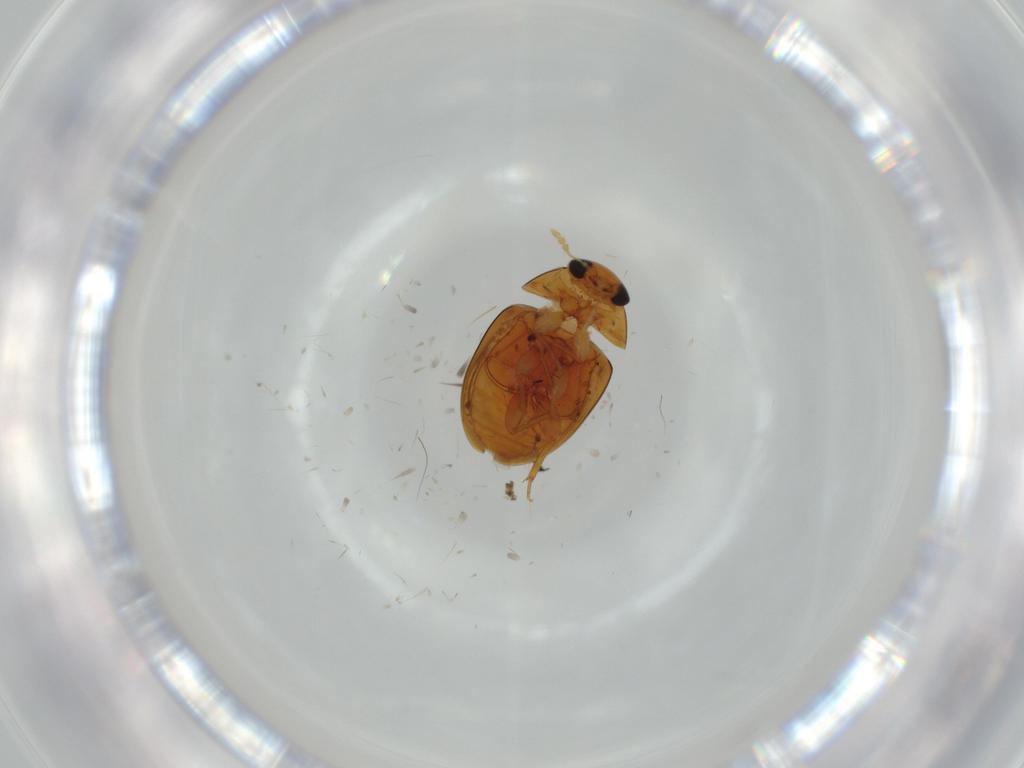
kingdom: Animalia
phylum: Arthropoda
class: Insecta
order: Coleoptera
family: Phalacridae
